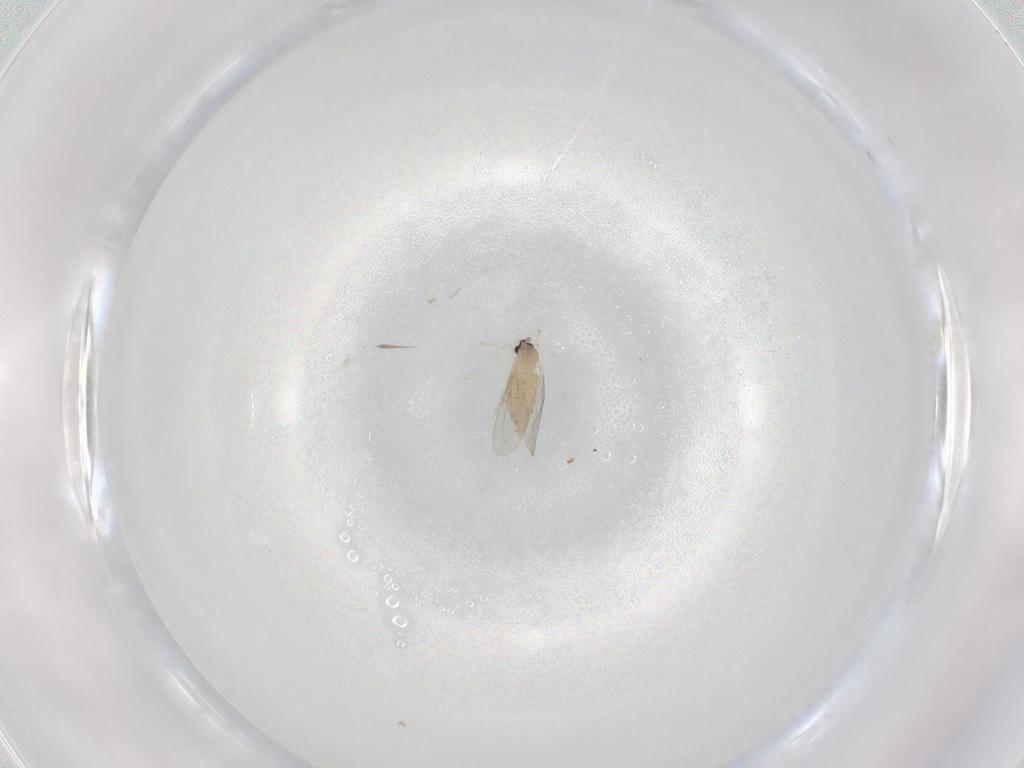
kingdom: Animalia
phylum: Arthropoda
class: Insecta
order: Diptera
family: Cecidomyiidae
